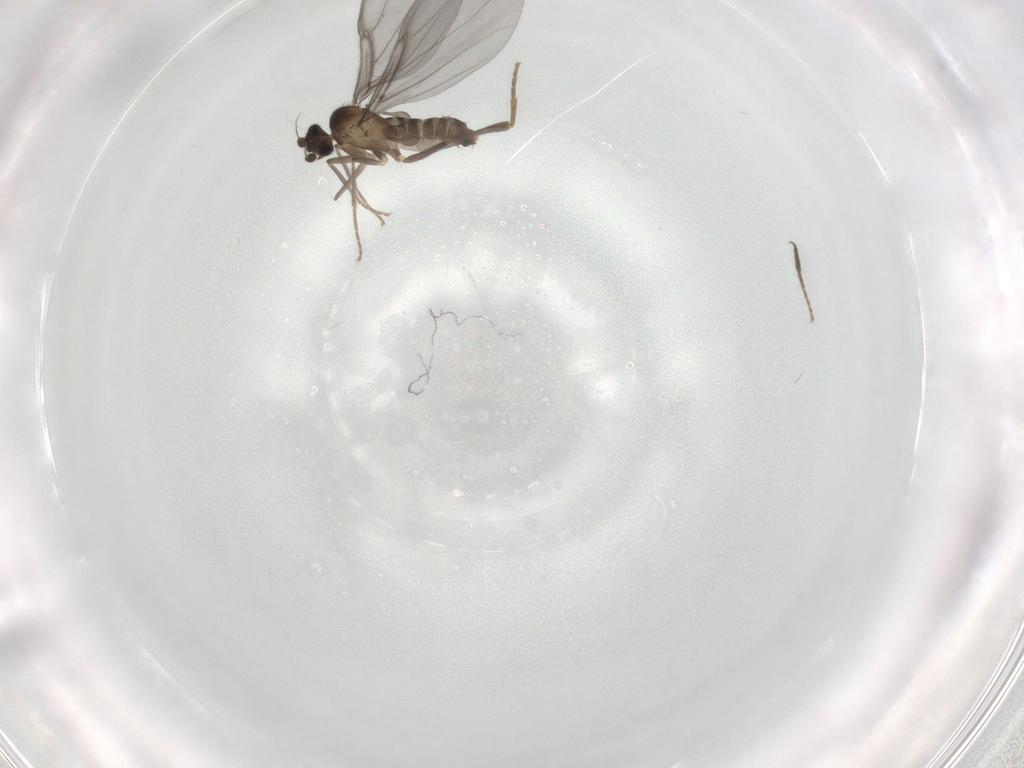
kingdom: Animalia
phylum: Arthropoda
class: Insecta
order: Diptera
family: Phoridae
